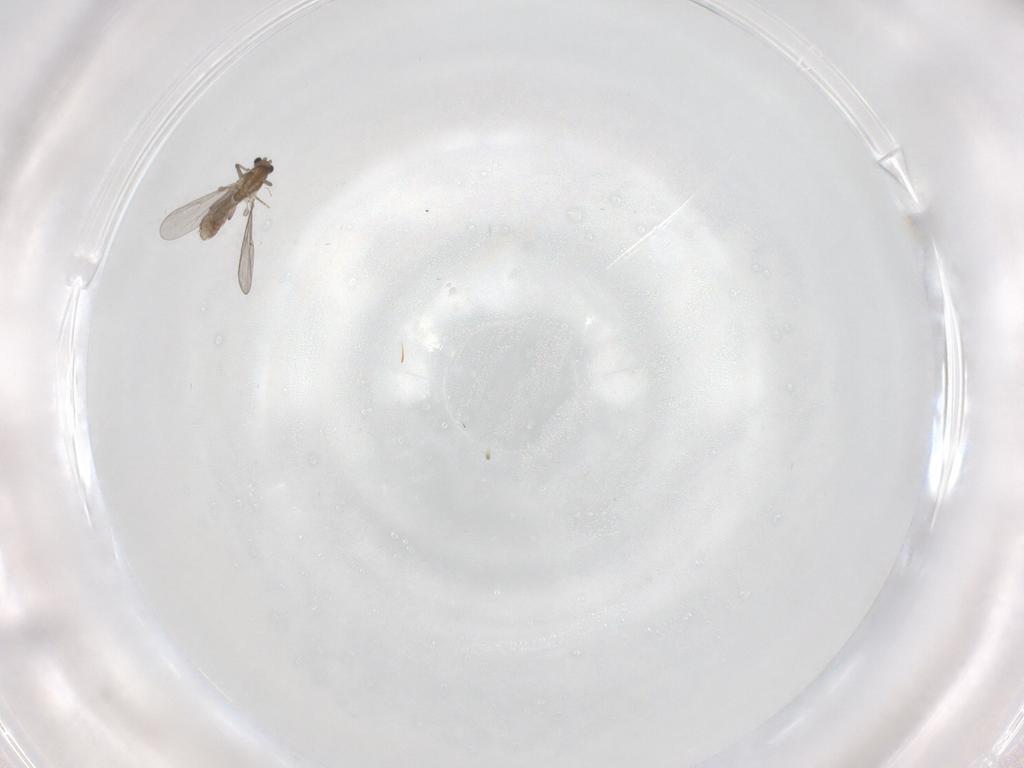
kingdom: Animalia
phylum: Arthropoda
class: Insecta
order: Diptera
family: Chironomidae
